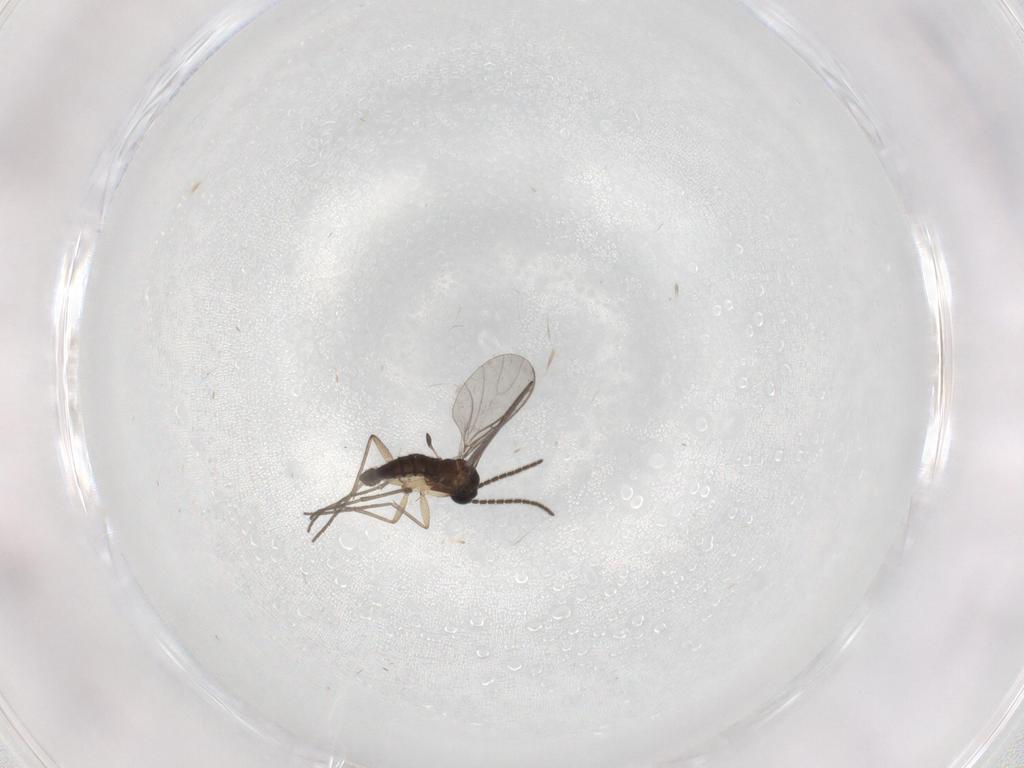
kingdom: Animalia
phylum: Arthropoda
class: Insecta
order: Diptera
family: Sciaridae
